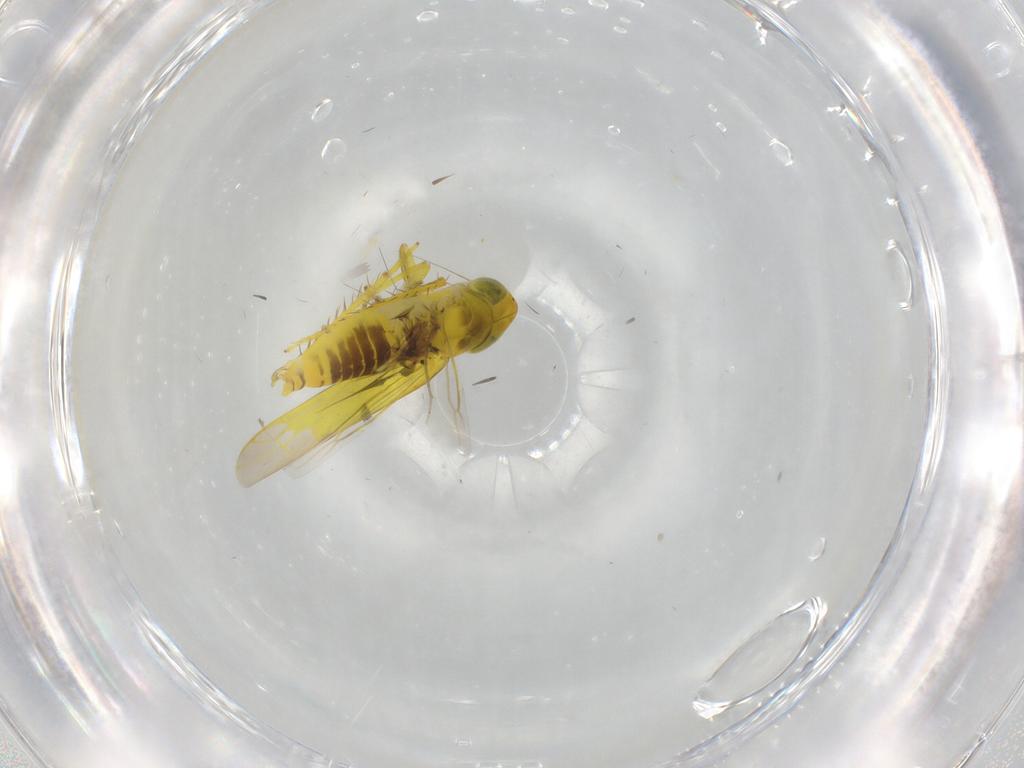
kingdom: Animalia
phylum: Arthropoda
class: Insecta
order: Hemiptera
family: Cicadellidae
